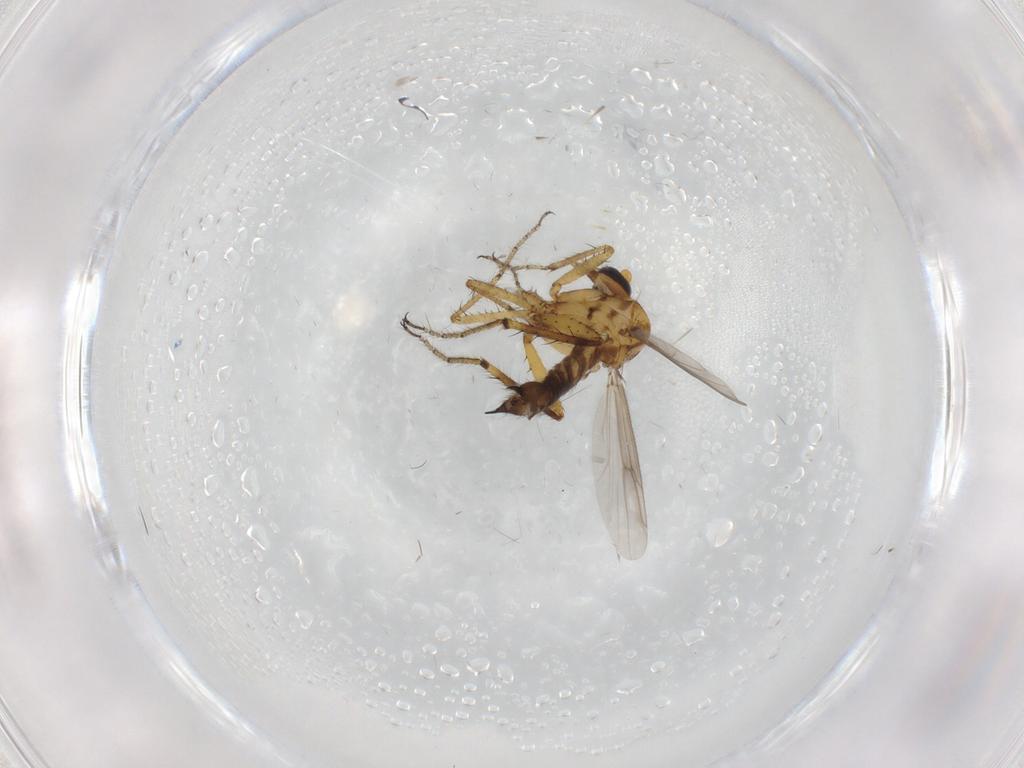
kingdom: Animalia
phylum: Arthropoda
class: Insecta
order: Diptera
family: Ceratopogonidae
